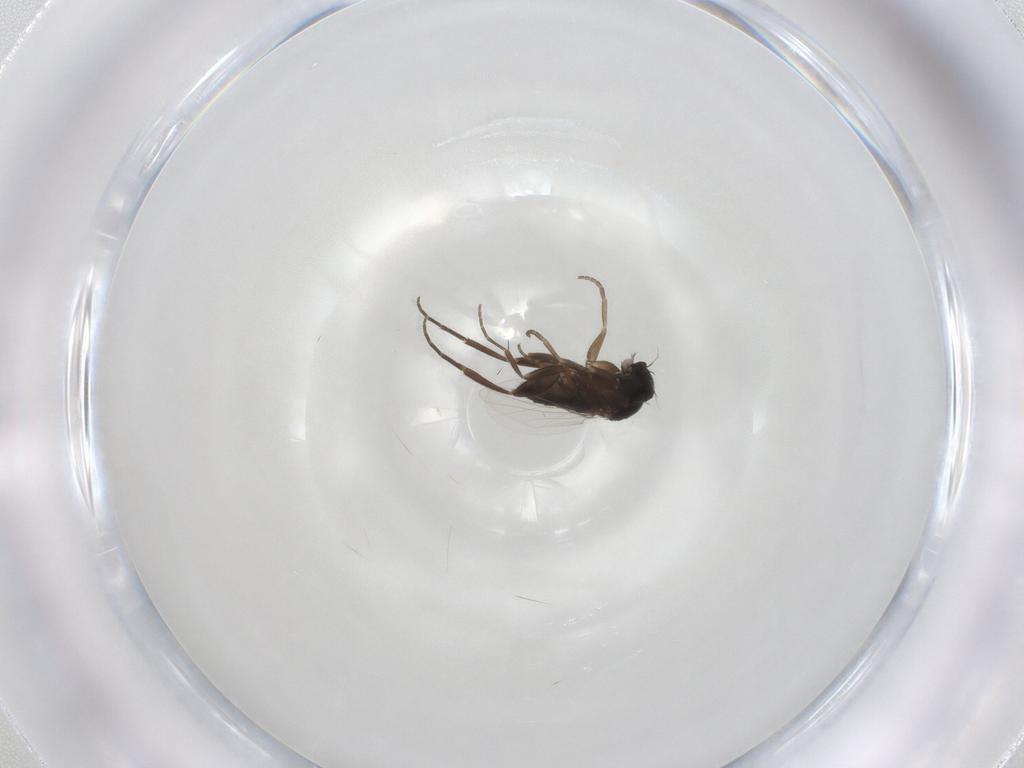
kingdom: Animalia
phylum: Arthropoda
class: Insecta
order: Diptera
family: Phoridae
